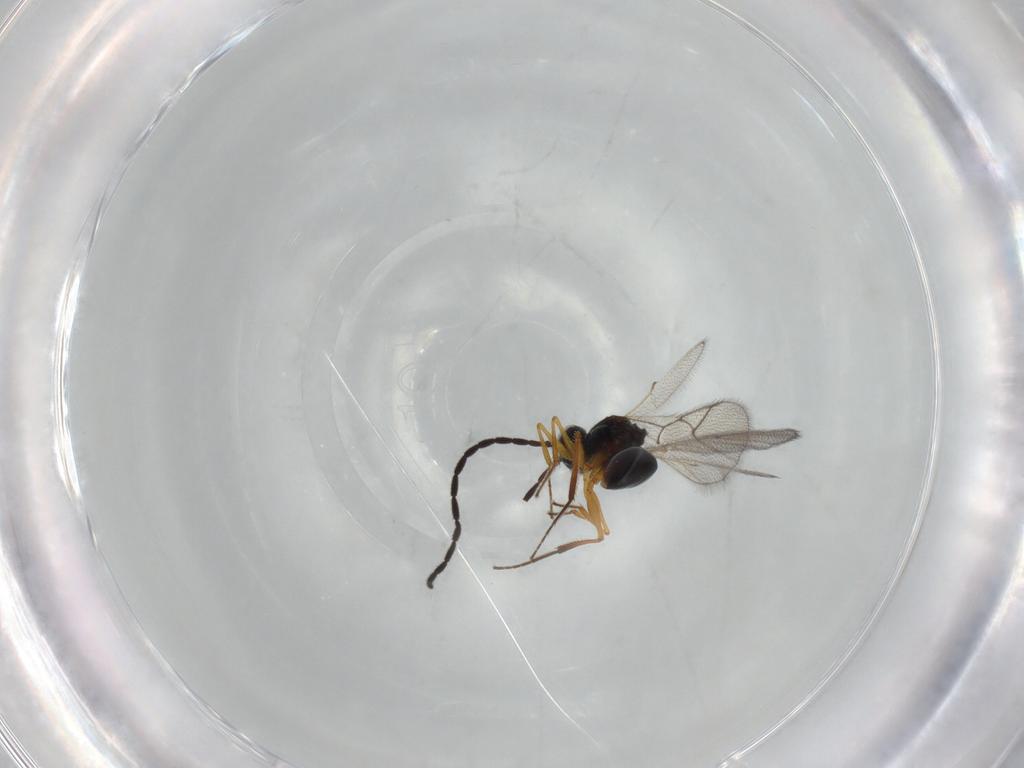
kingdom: Animalia
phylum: Arthropoda
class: Insecta
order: Hymenoptera
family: Figitidae
